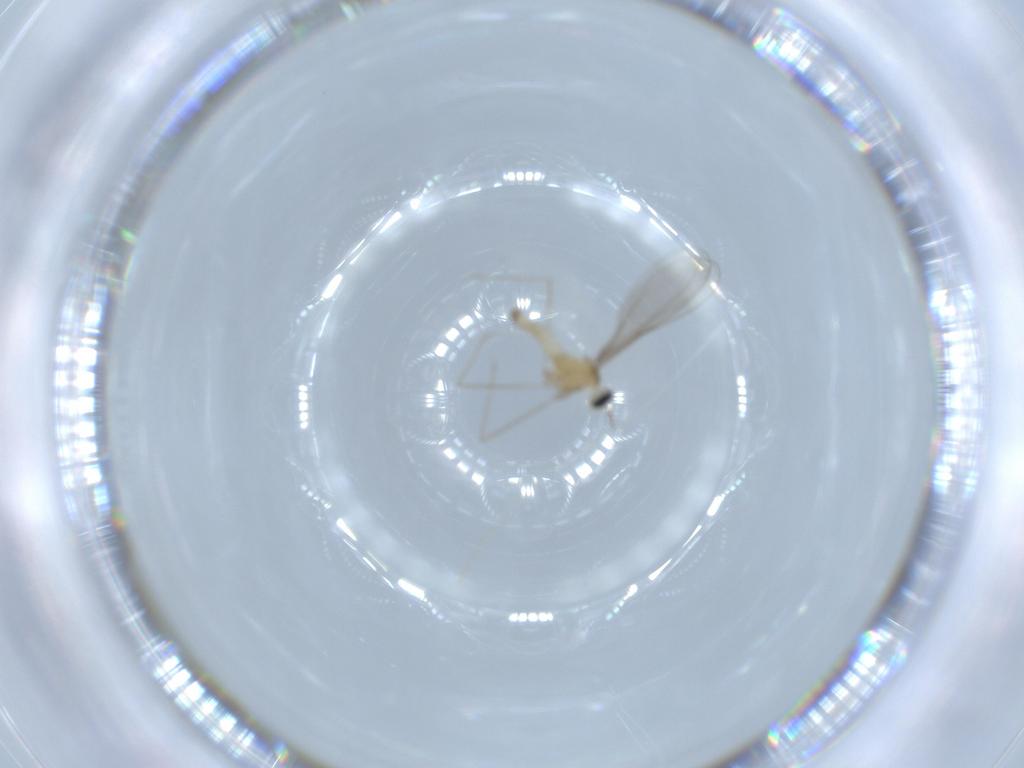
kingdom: Animalia
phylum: Arthropoda
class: Insecta
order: Diptera
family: Cecidomyiidae
